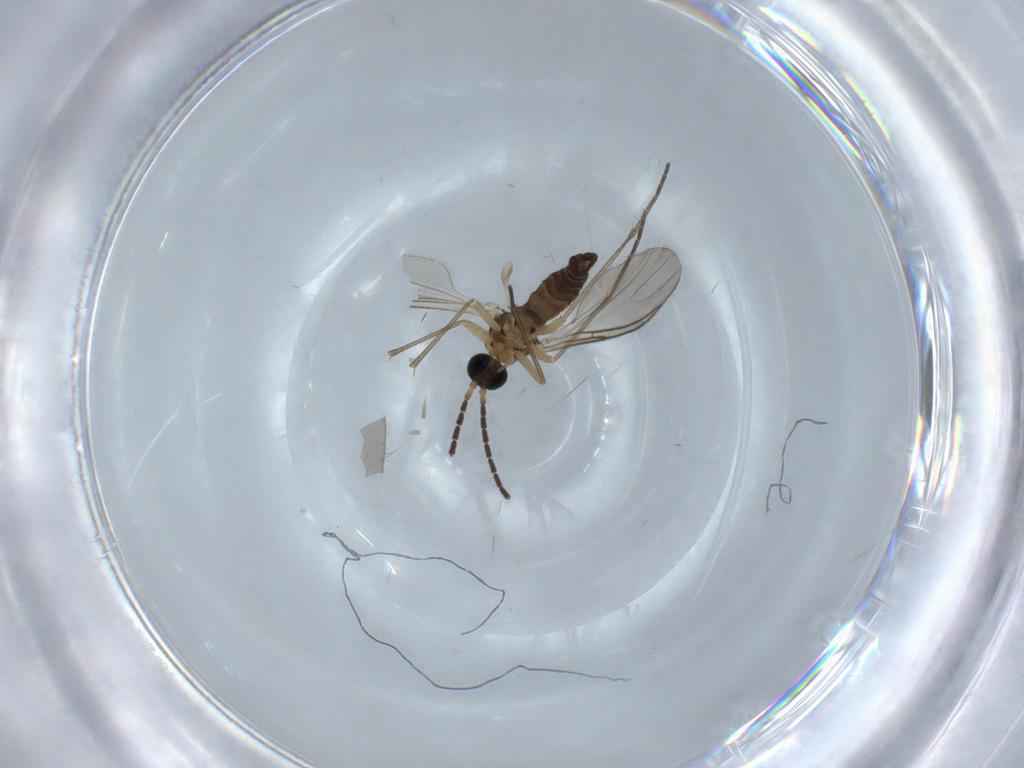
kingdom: Animalia
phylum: Arthropoda
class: Insecta
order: Diptera
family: Sciaridae
